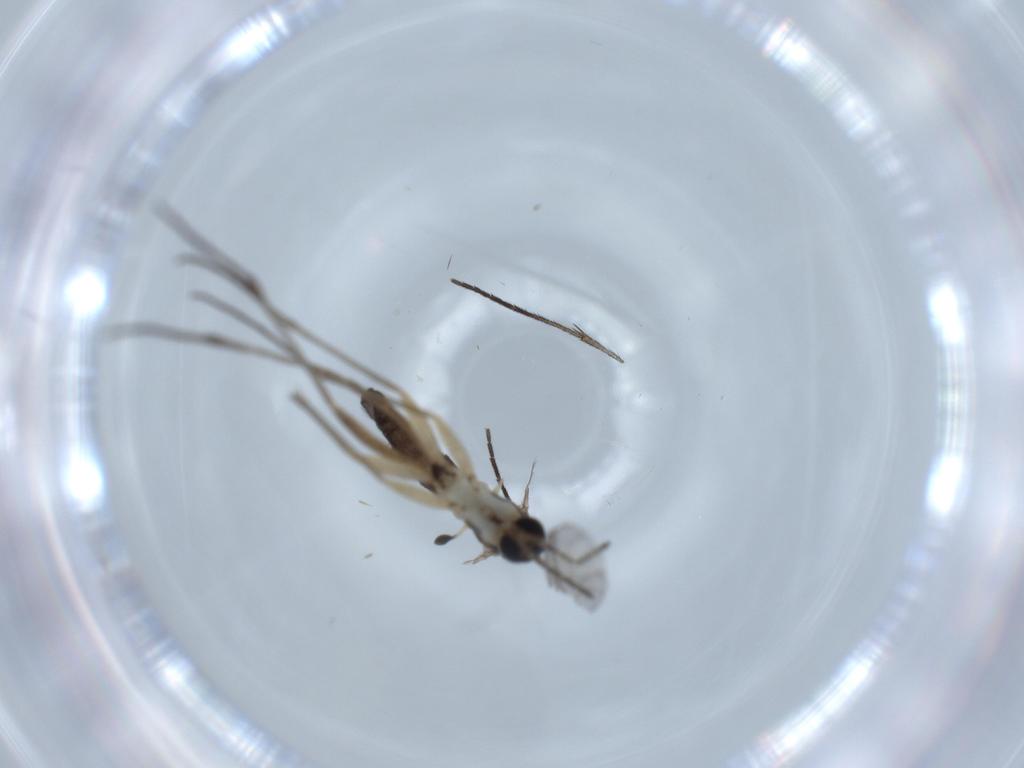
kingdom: Animalia
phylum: Arthropoda
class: Insecta
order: Diptera
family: Sciaridae
